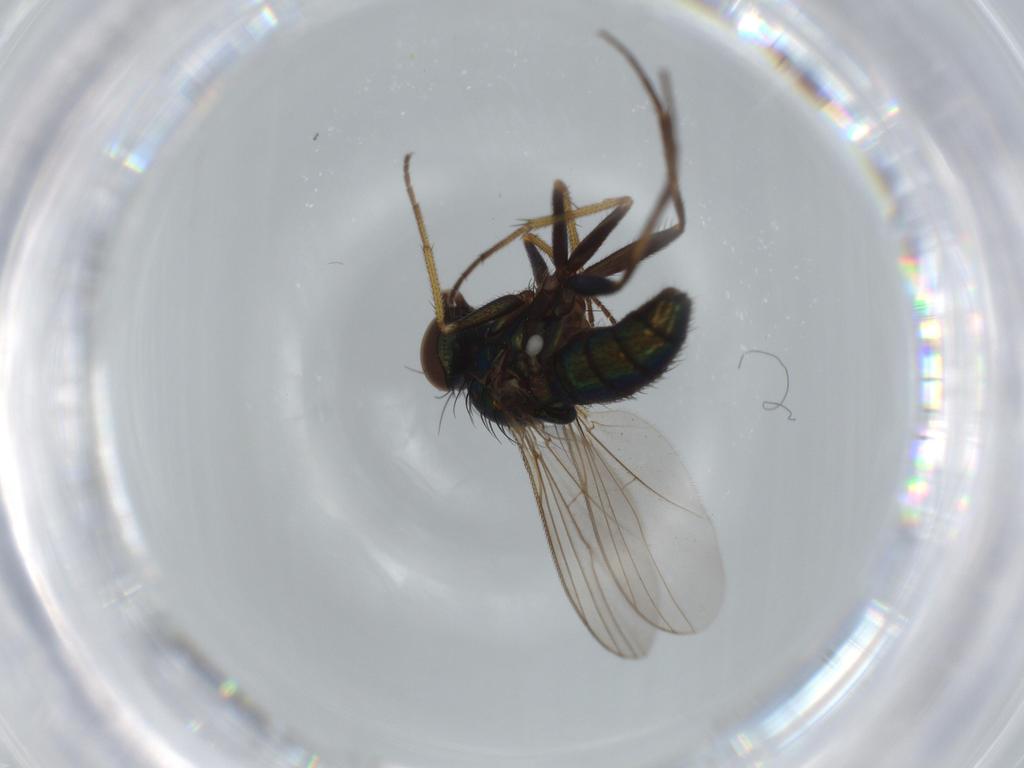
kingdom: Animalia
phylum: Arthropoda
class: Insecta
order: Diptera
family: Dolichopodidae
